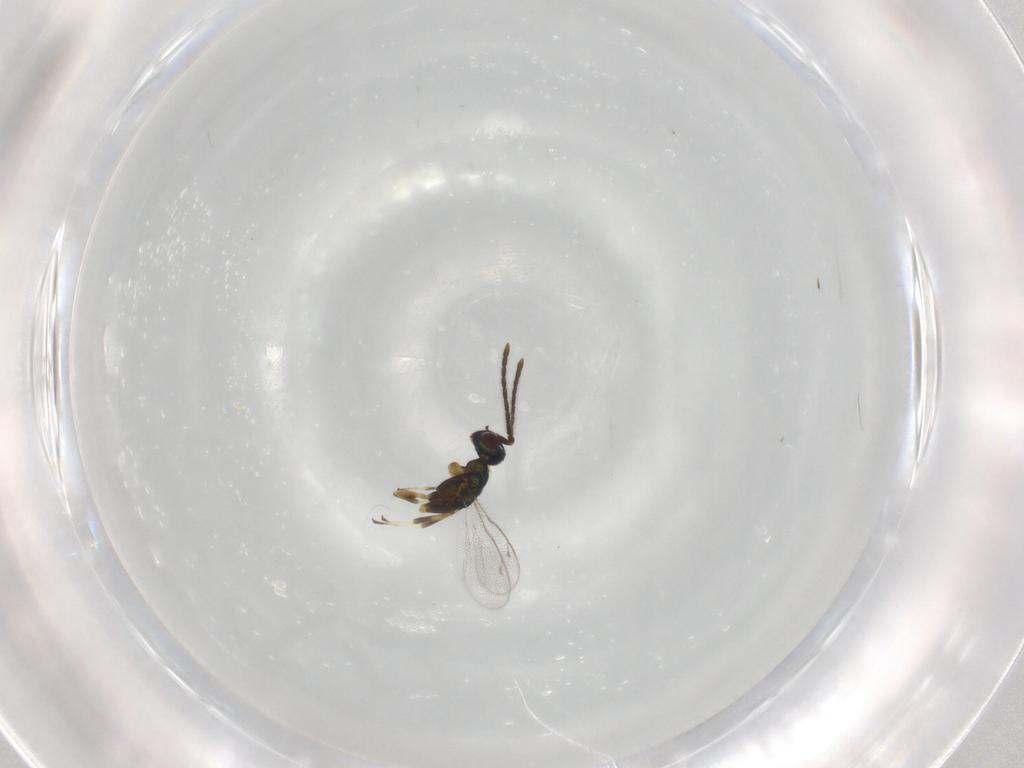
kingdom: Animalia
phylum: Arthropoda
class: Insecta
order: Hymenoptera
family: Eupelmidae
